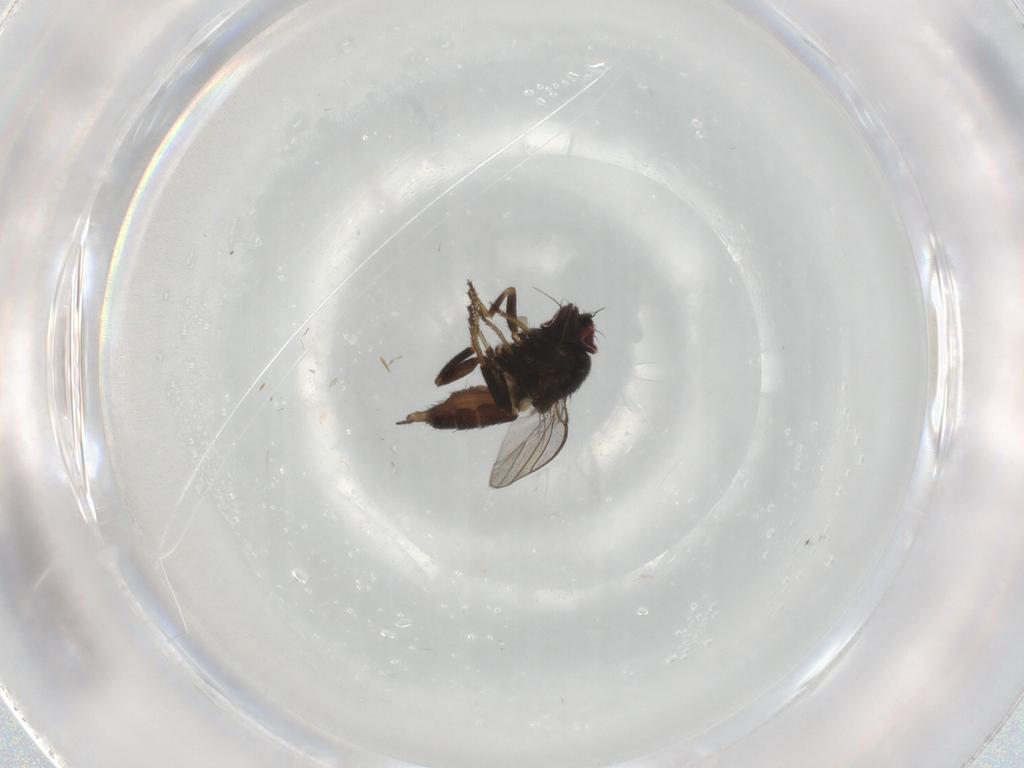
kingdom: Animalia
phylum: Arthropoda
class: Insecta
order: Diptera
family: Milichiidae
